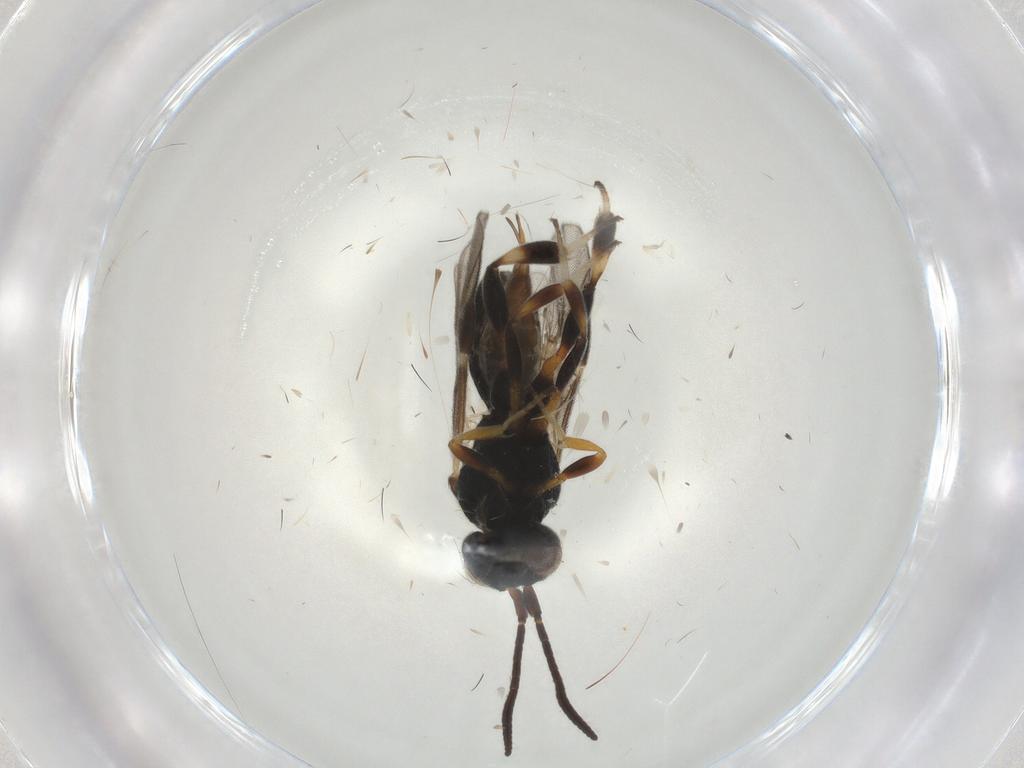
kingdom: Animalia
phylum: Arthropoda
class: Insecta
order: Hymenoptera
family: Braconidae
